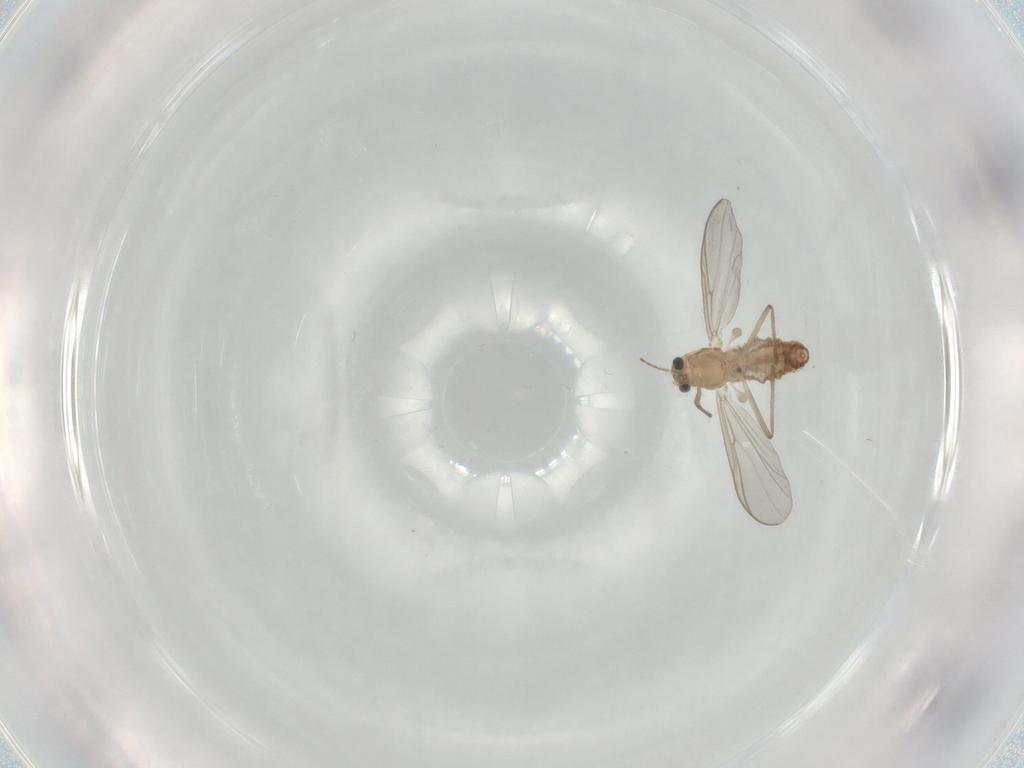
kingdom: Animalia
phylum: Arthropoda
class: Insecta
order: Diptera
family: Chironomidae
